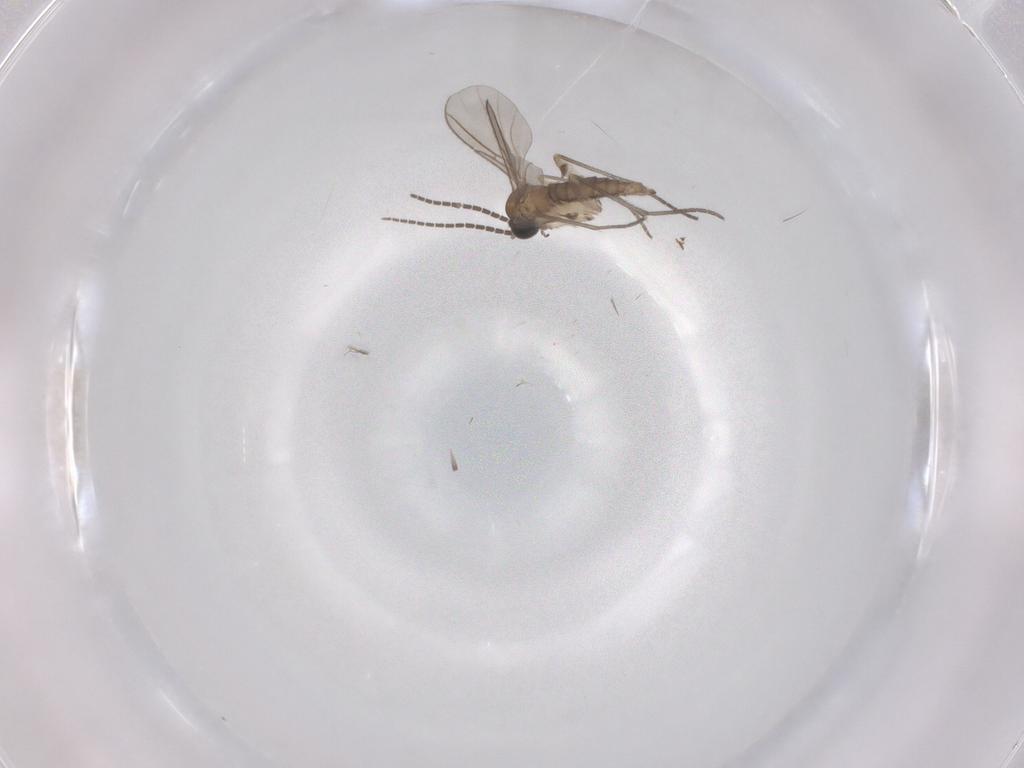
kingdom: Animalia
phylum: Arthropoda
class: Insecta
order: Diptera
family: Sciaridae
